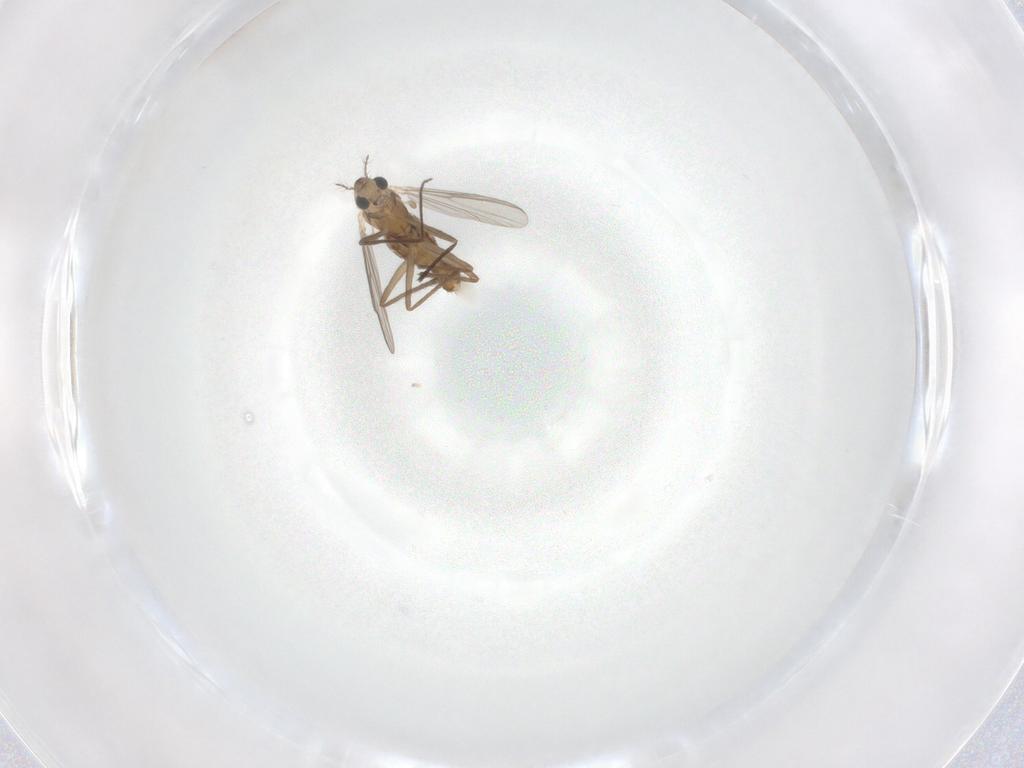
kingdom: Animalia
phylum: Arthropoda
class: Insecta
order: Diptera
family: Chironomidae
